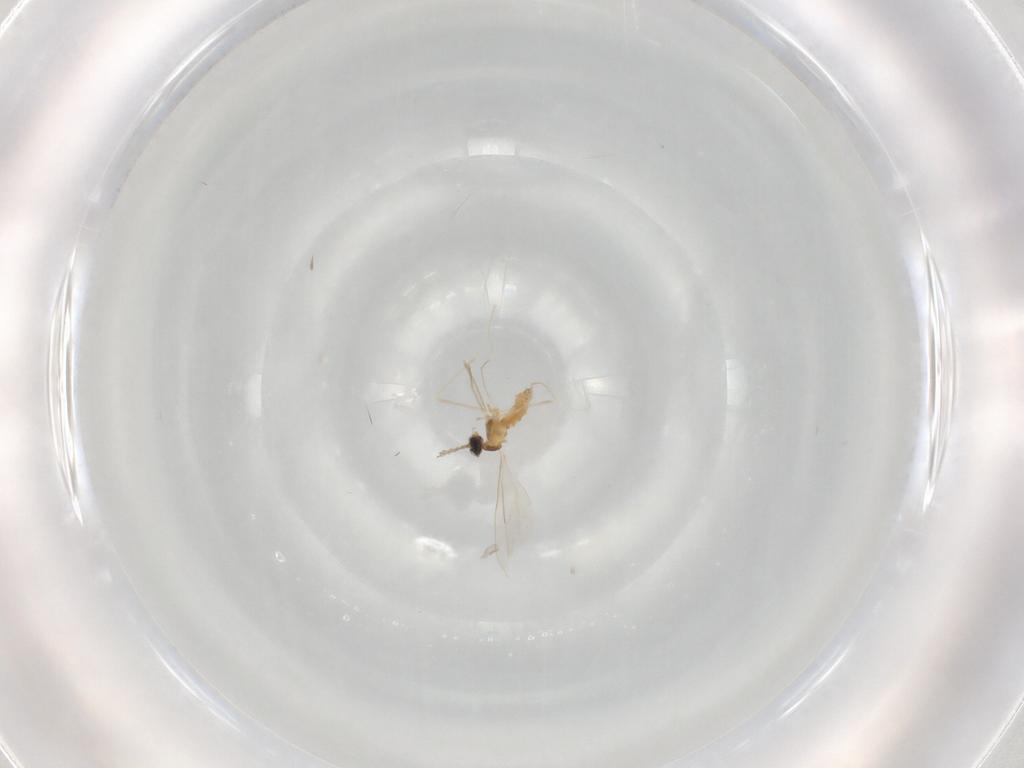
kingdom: Animalia
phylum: Arthropoda
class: Insecta
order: Diptera
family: Cecidomyiidae
